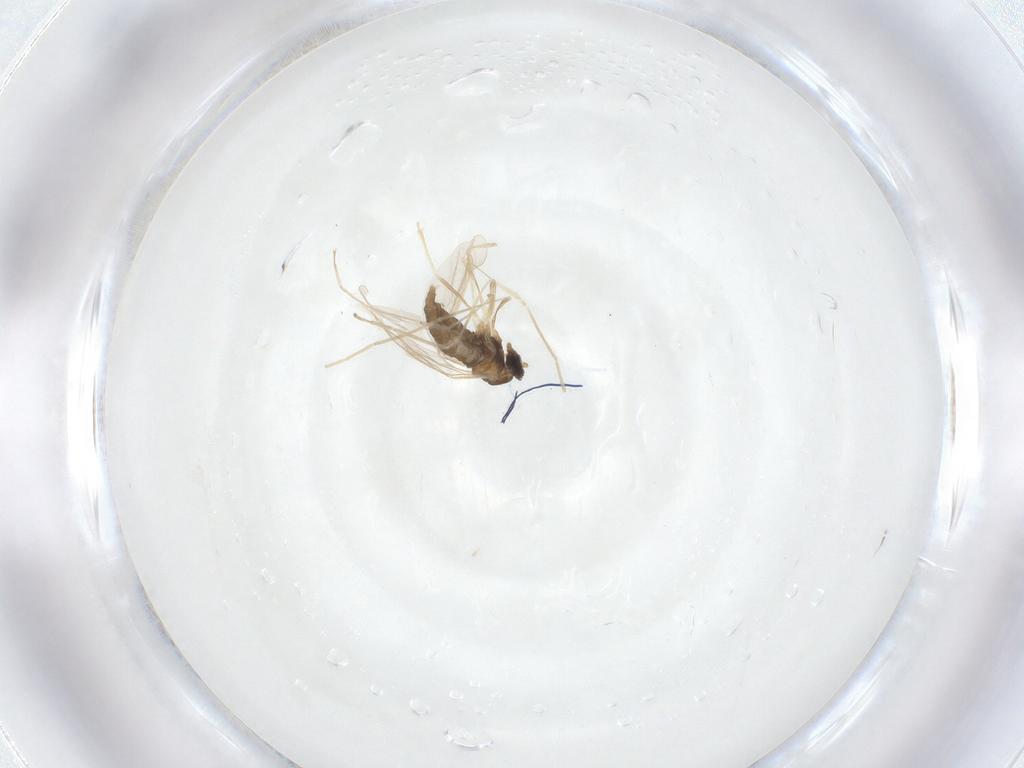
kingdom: Animalia
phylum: Arthropoda
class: Insecta
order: Diptera
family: Cecidomyiidae
